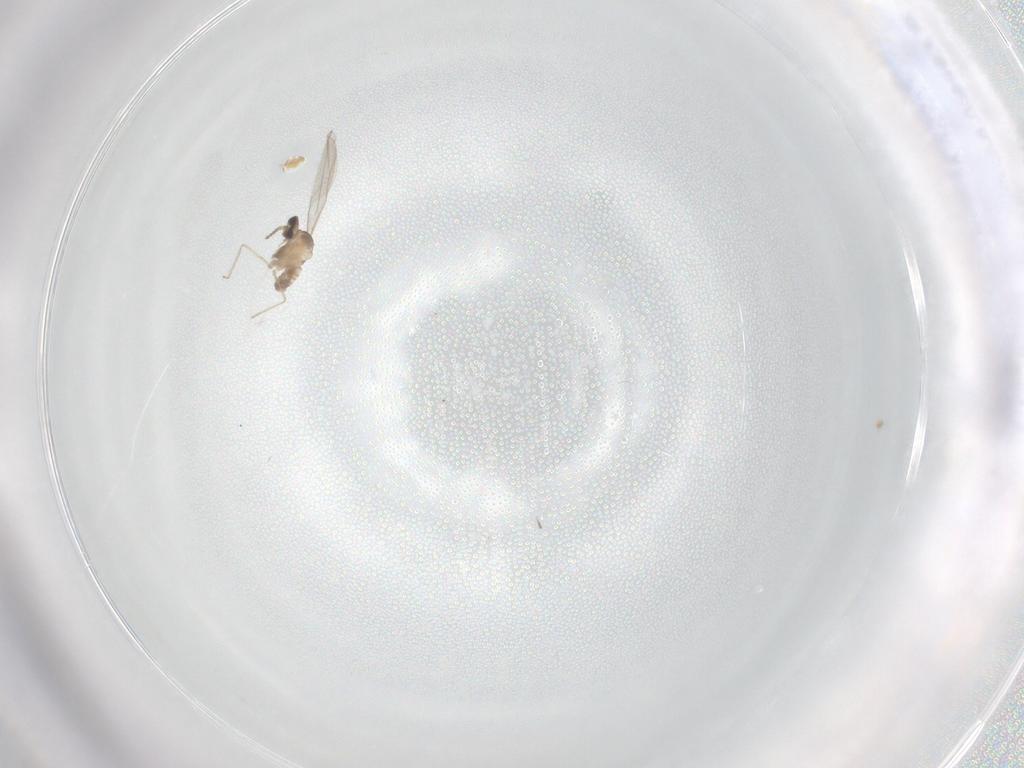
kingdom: Animalia
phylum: Arthropoda
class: Insecta
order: Diptera
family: Cecidomyiidae
